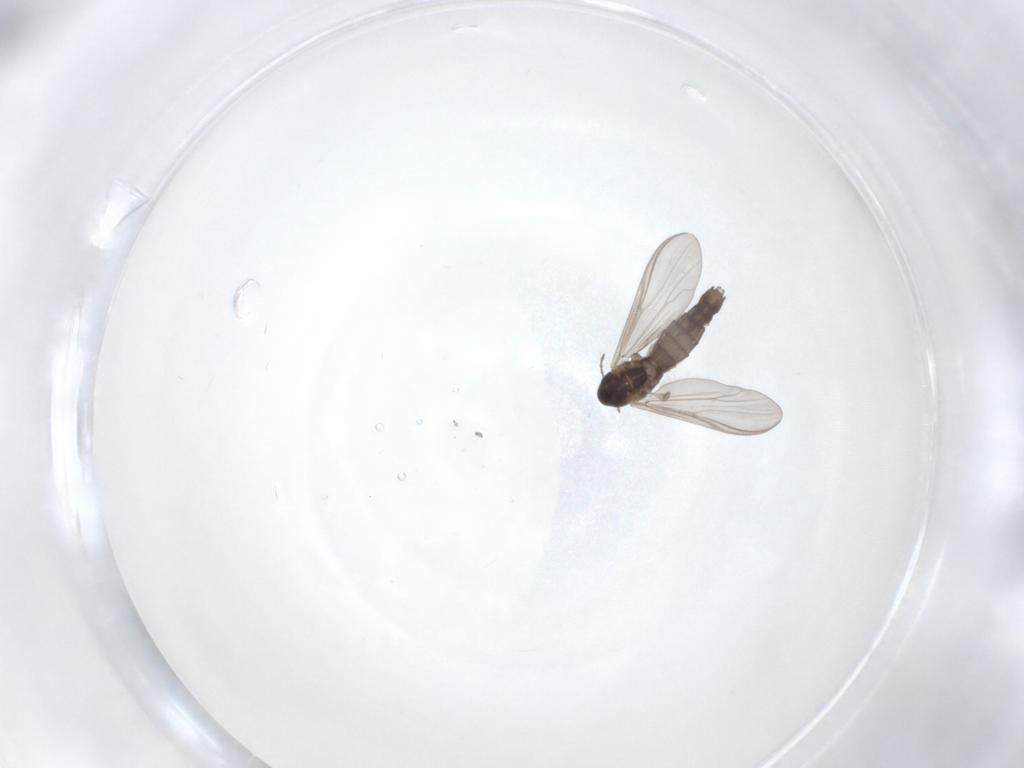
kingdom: Animalia
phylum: Arthropoda
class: Insecta
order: Diptera
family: Chironomidae
